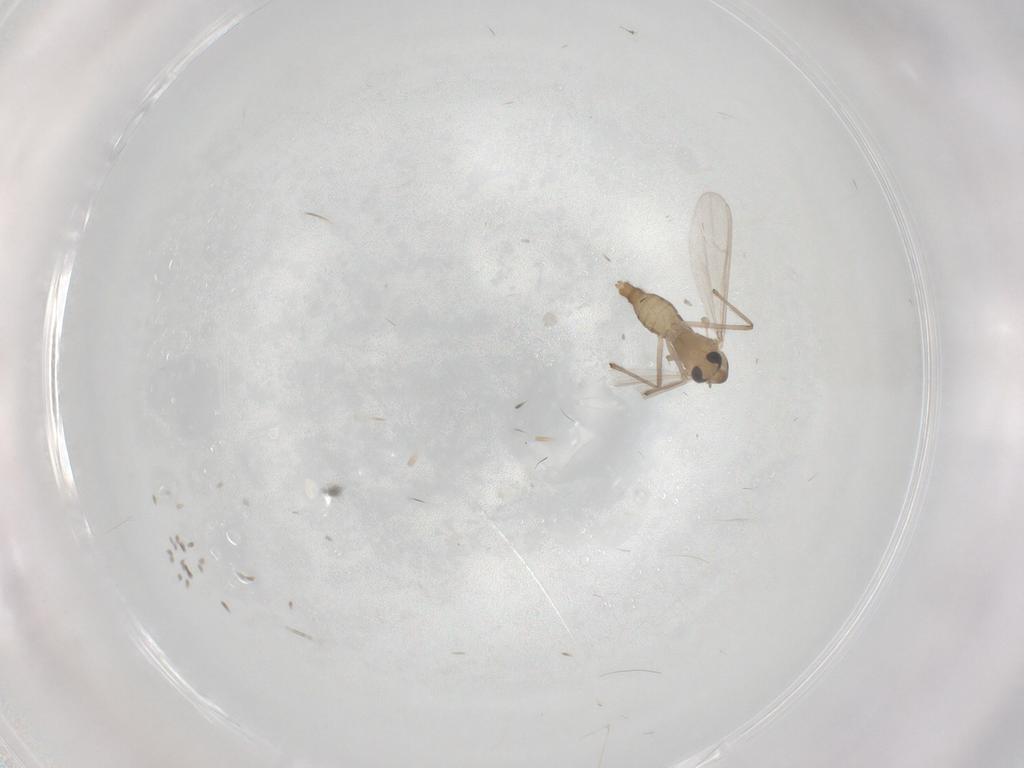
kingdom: Animalia
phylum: Arthropoda
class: Insecta
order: Diptera
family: Chironomidae
